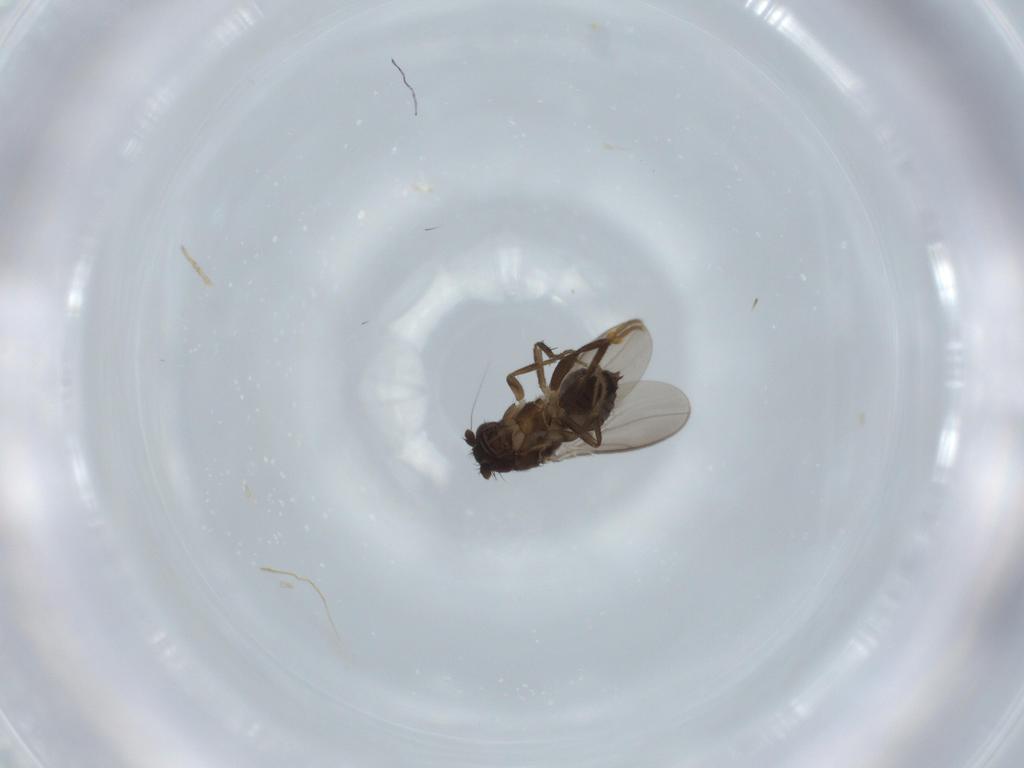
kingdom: Animalia
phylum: Arthropoda
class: Insecta
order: Diptera
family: Sphaeroceridae
